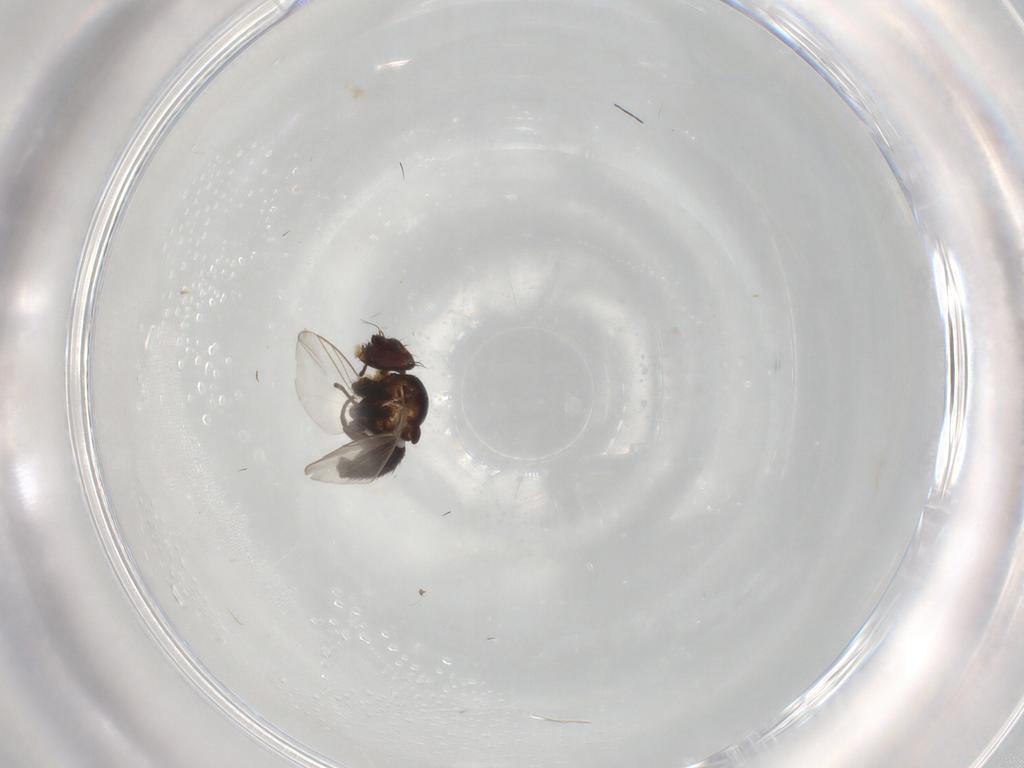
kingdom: Animalia
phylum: Arthropoda
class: Insecta
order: Diptera
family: Agromyzidae
